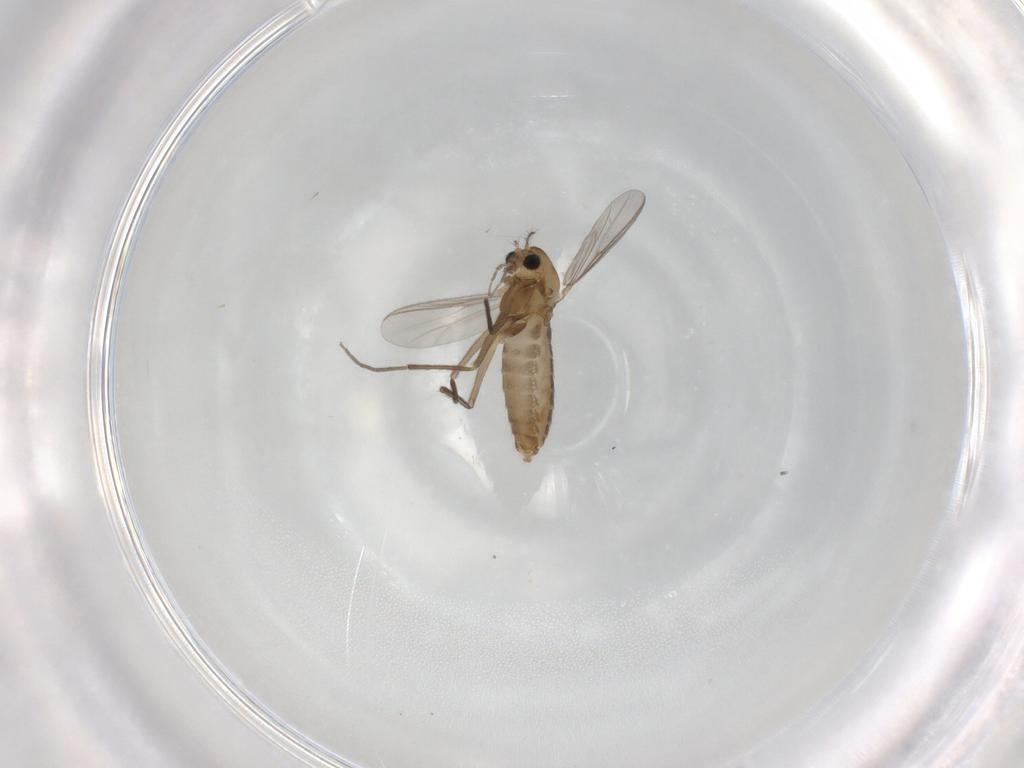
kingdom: Animalia
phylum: Arthropoda
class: Insecta
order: Diptera
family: Chironomidae
